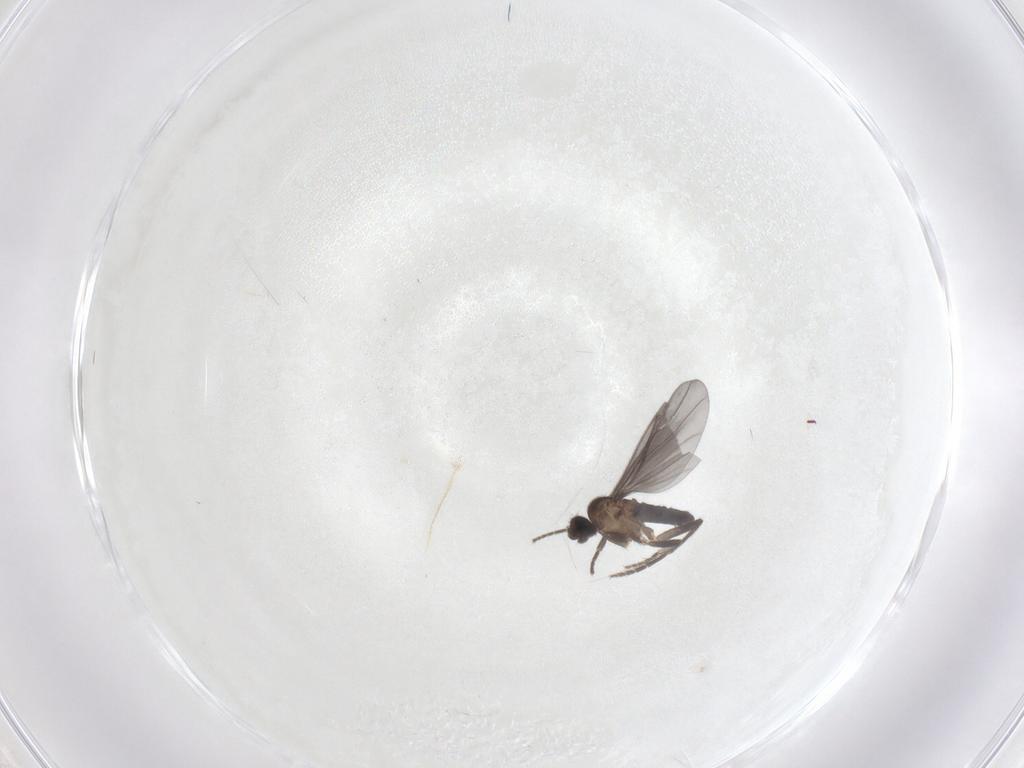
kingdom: Animalia
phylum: Arthropoda
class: Insecta
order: Diptera
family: Phoridae
